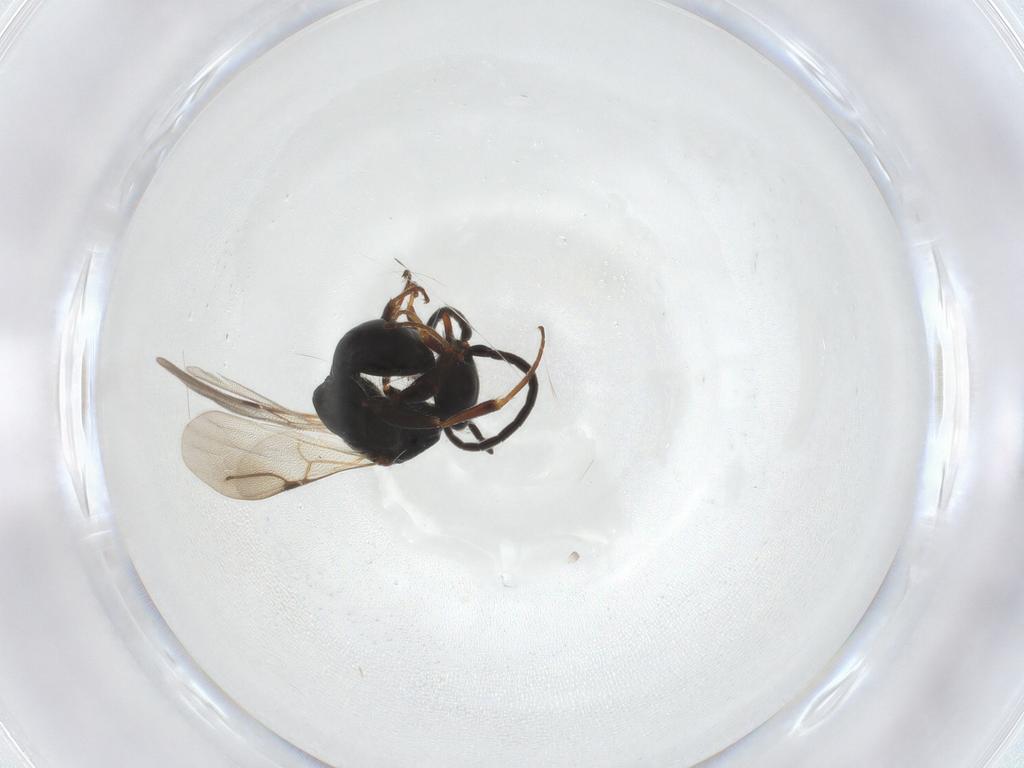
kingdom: Animalia
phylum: Arthropoda
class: Insecta
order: Hymenoptera
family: Bethylidae
